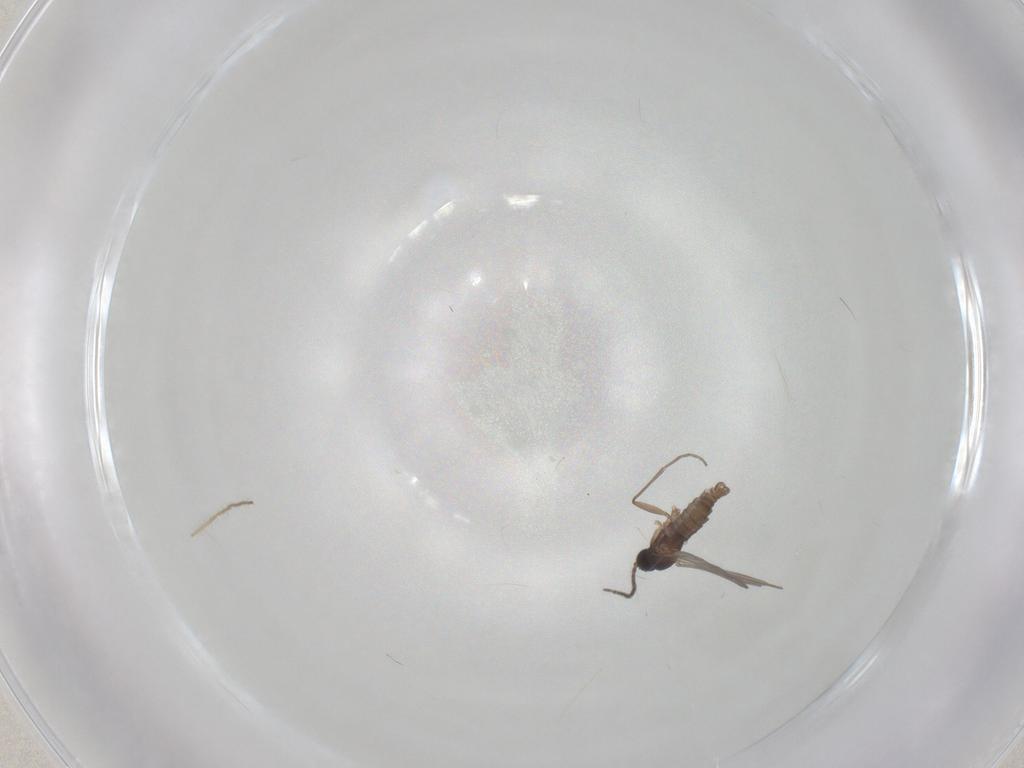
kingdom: Animalia
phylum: Arthropoda
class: Insecta
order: Diptera
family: Sciaridae
